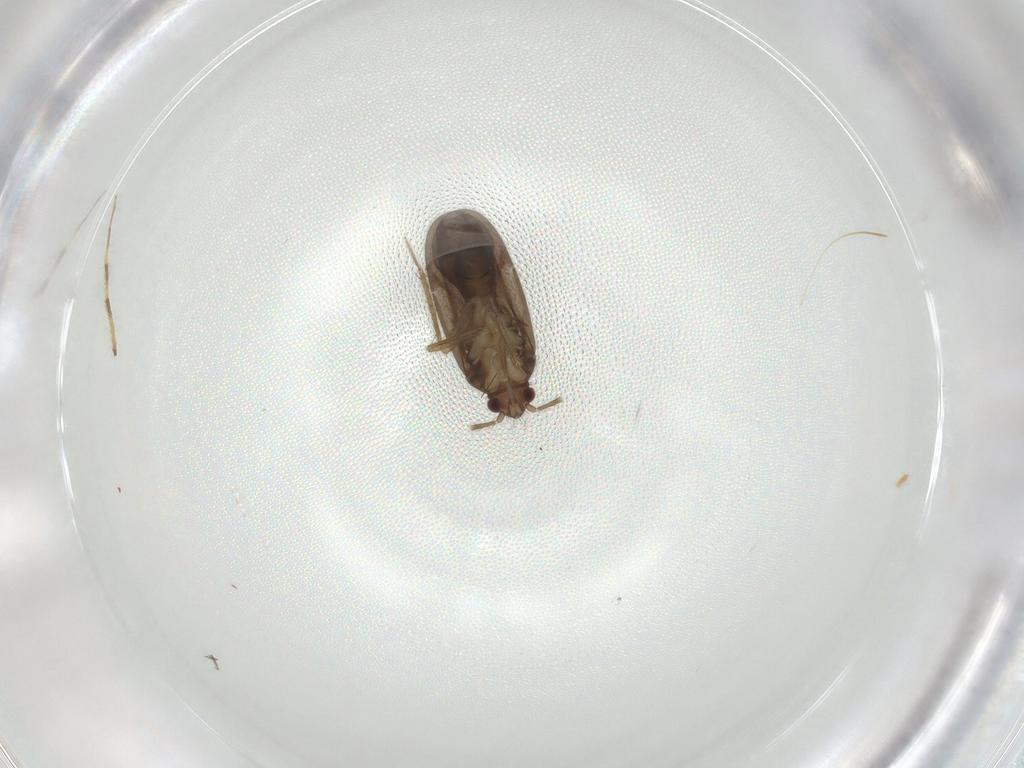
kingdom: Animalia
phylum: Arthropoda
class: Insecta
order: Hemiptera
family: Ceratocombidae
